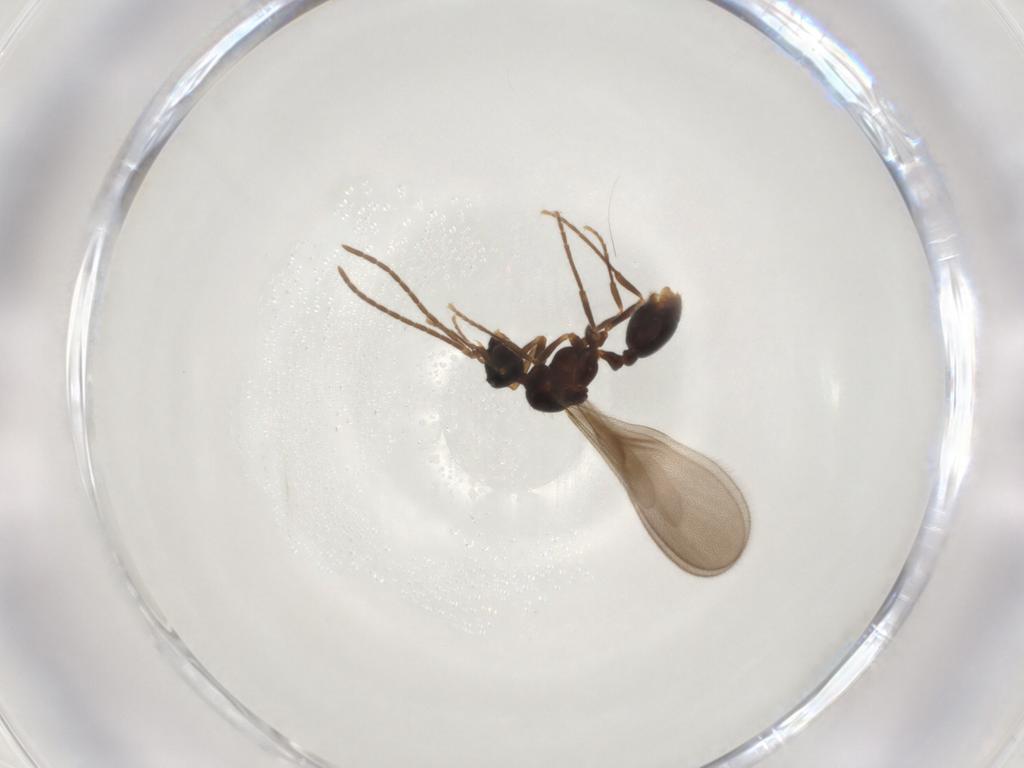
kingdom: Animalia
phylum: Arthropoda
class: Insecta
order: Hymenoptera
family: Formicidae
